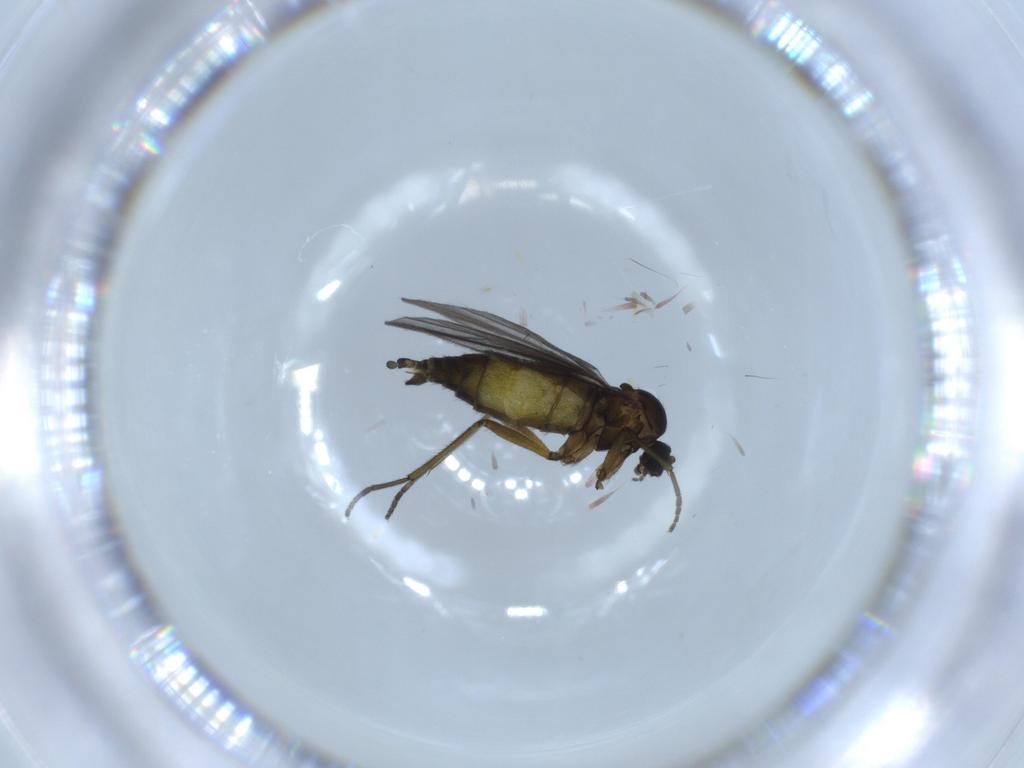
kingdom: Animalia
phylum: Arthropoda
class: Insecta
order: Diptera
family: Sciaridae
